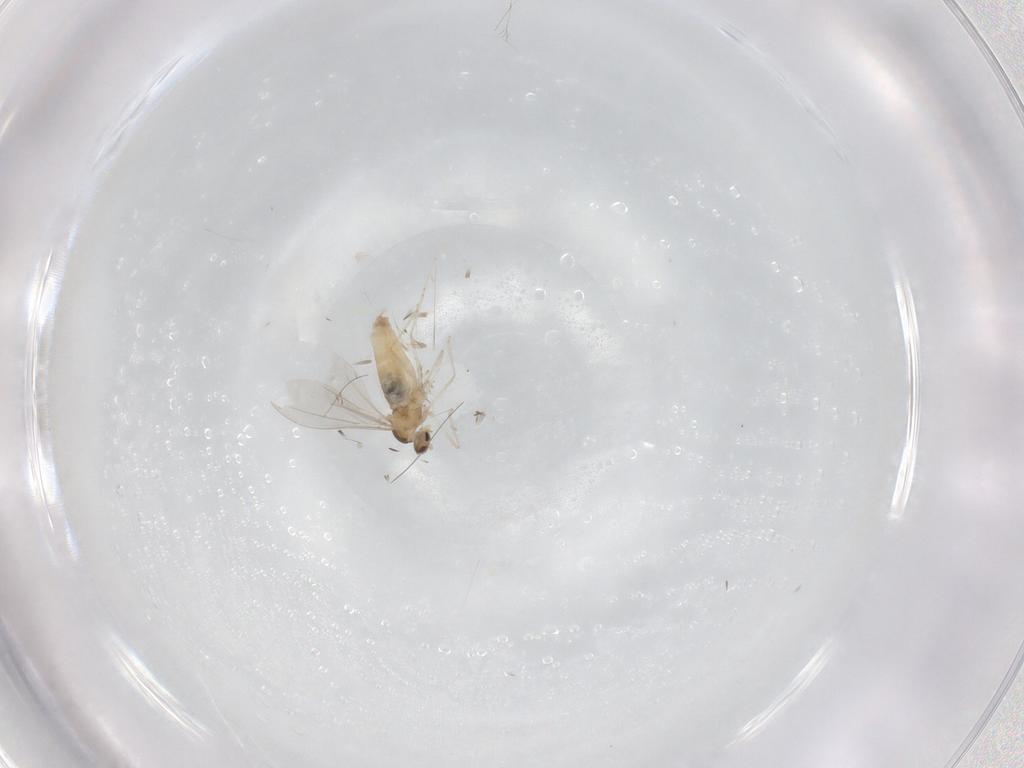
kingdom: Animalia
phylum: Arthropoda
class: Insecta
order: Diptera
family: Cecidomyiidae
